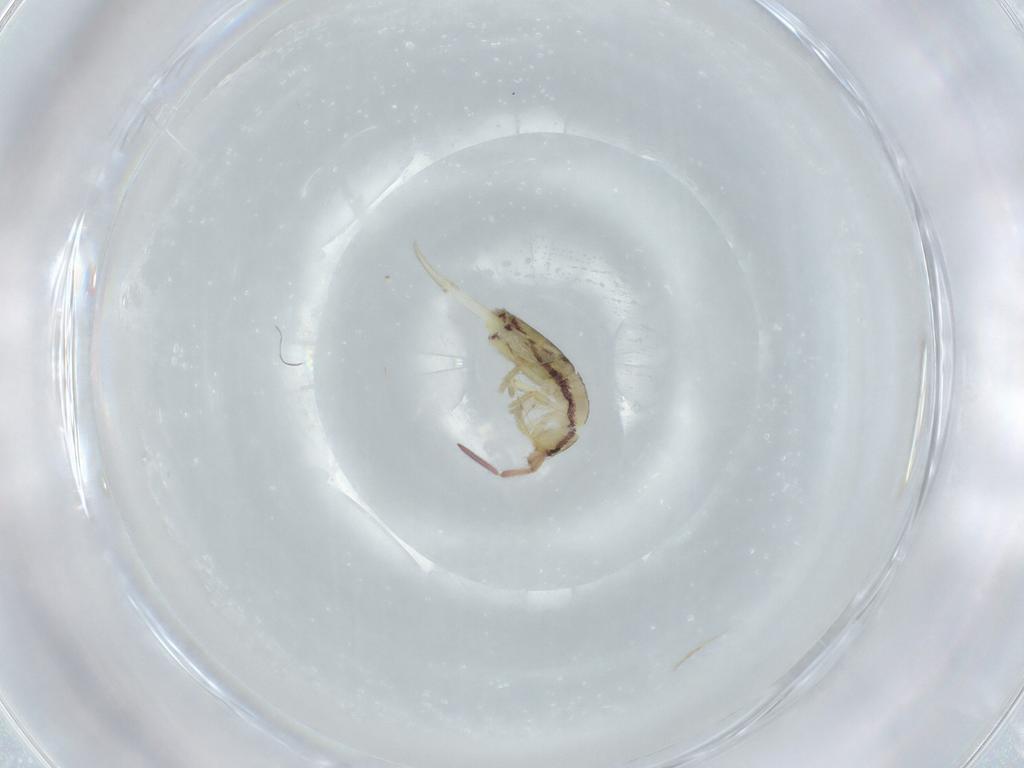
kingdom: Animalia
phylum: Arthropoda
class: Collembola
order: Entomobryomorpha
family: Entomobryidae
